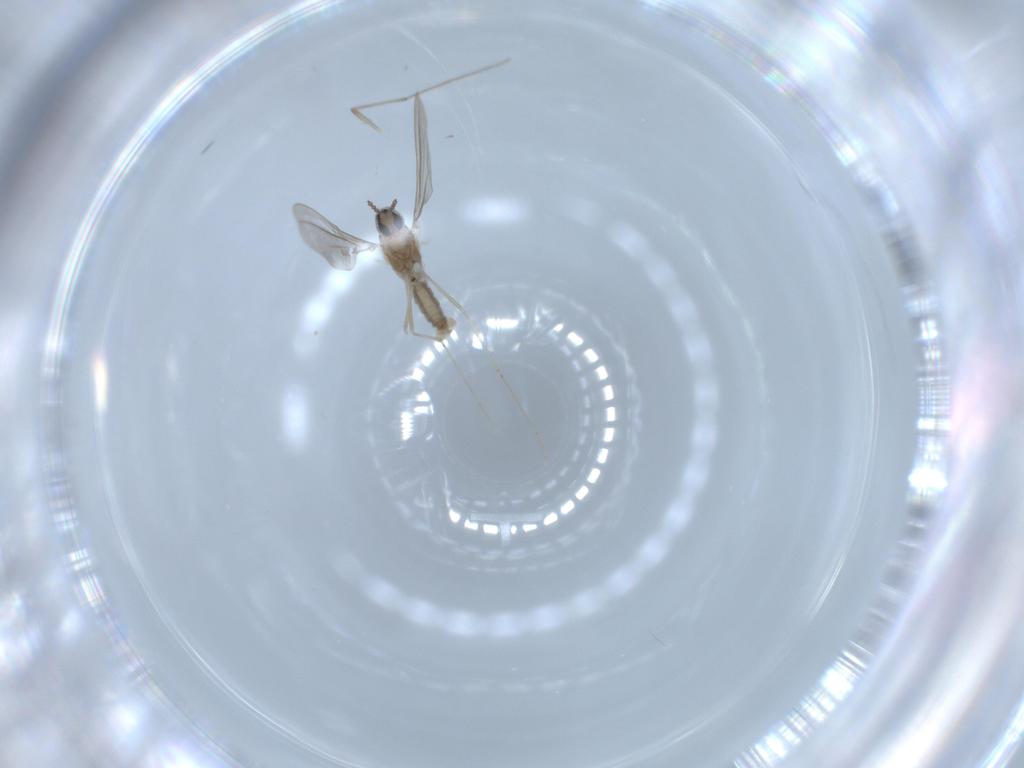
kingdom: Animalia
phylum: Arthropoda
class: Insecta
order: Diptera
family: Cecidomyiidae
